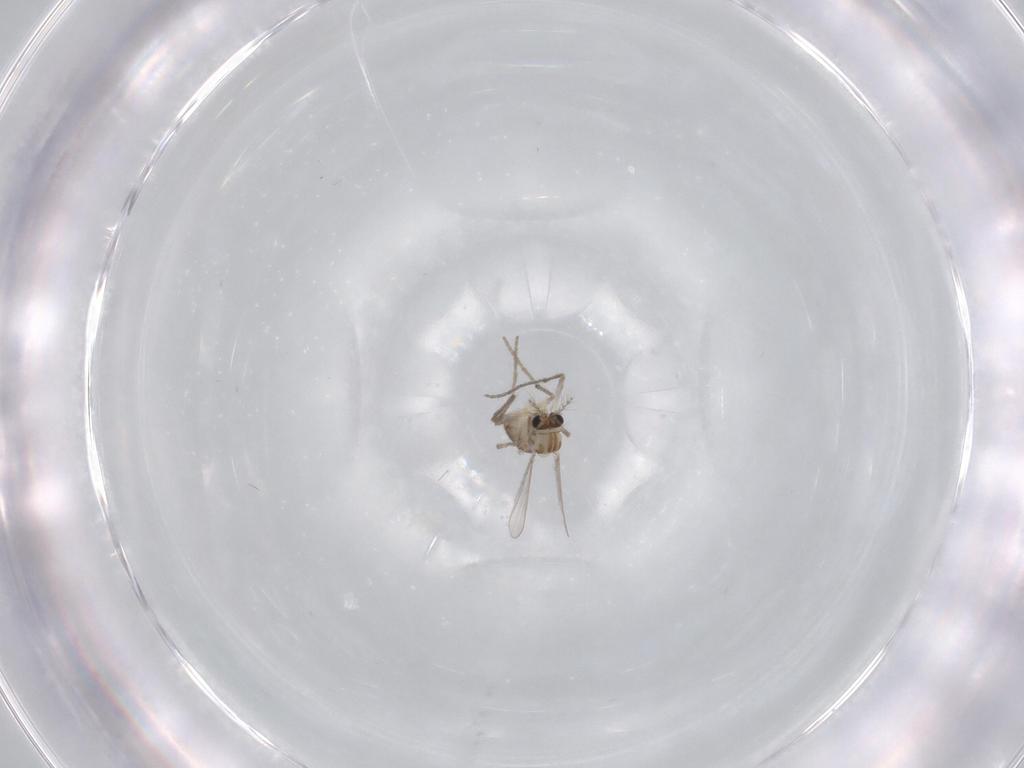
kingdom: Animalia
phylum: Arthropoda
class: Insecta
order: Diptera
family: Chironomidae
